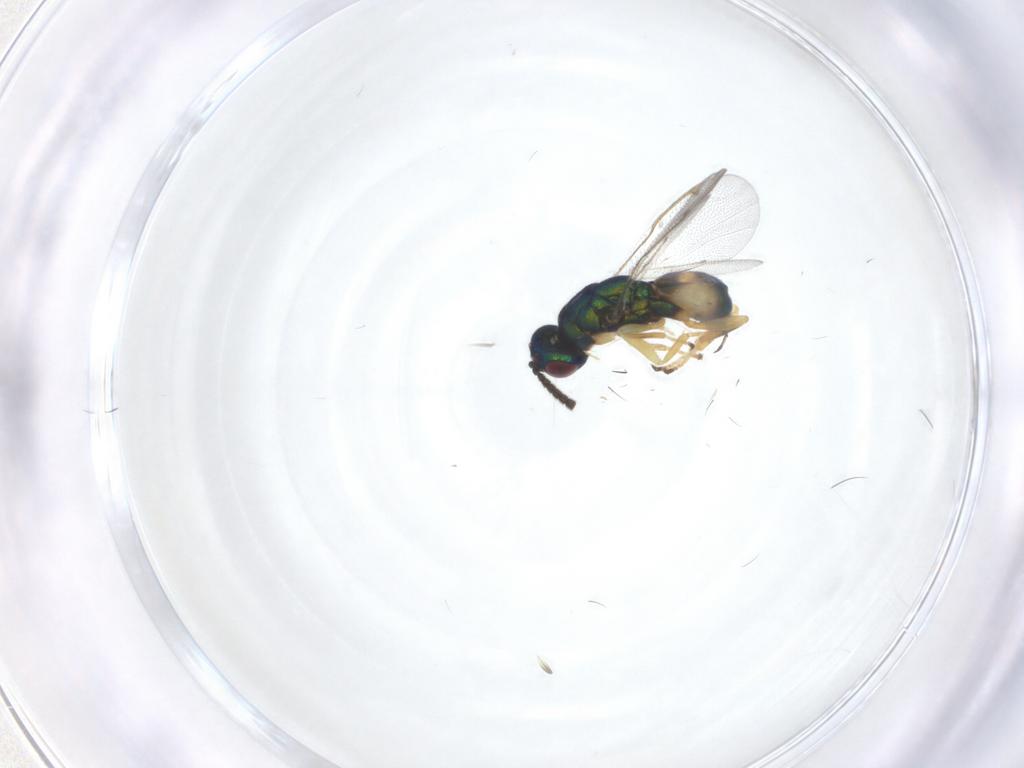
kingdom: Animalia
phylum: Arthropoda
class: Insecta
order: Hymenoptera
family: Torymidae
